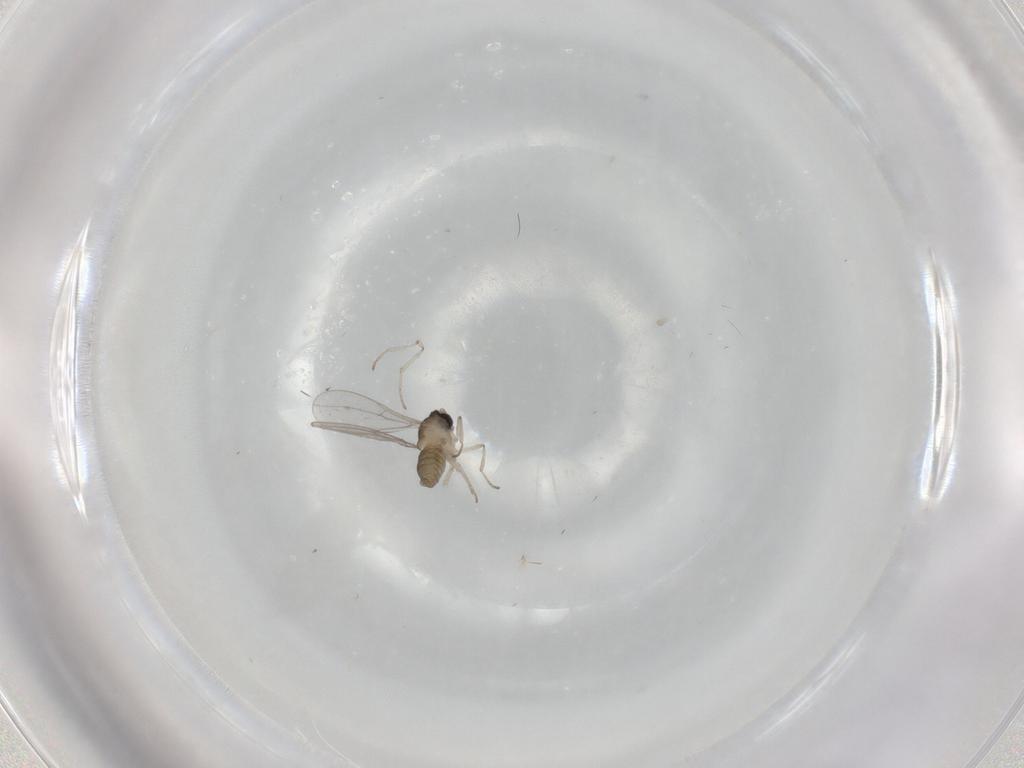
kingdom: Animalia
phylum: Arthropoda
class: Insecta
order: Diptera
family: Cecidomyiidae
